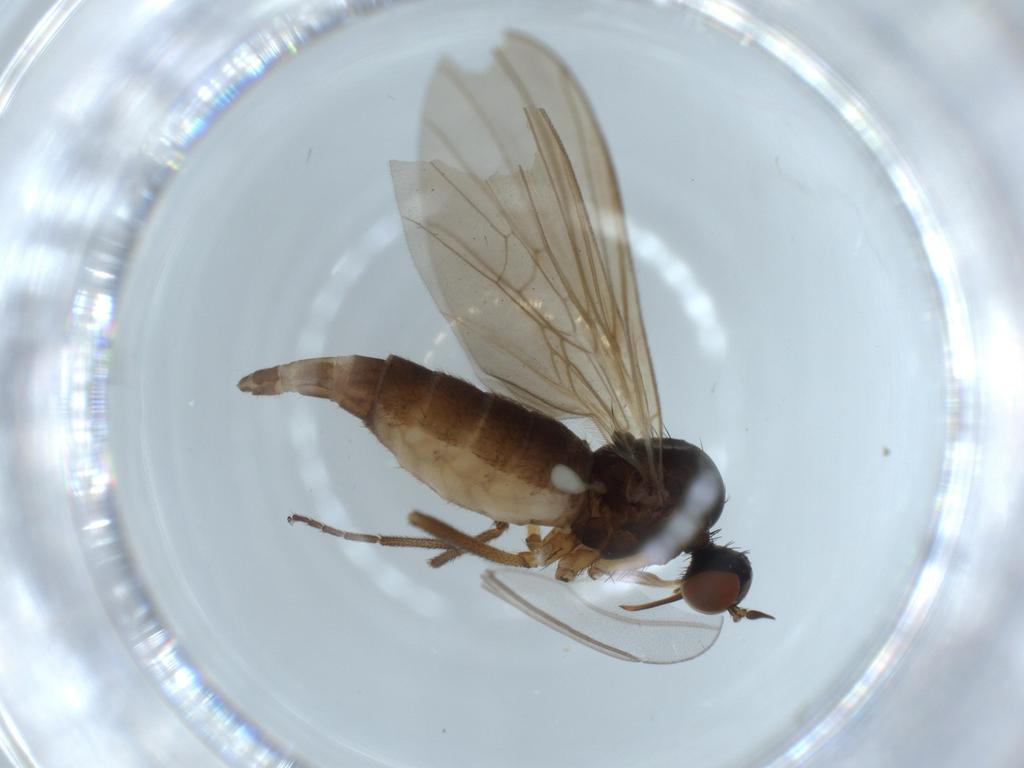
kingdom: Animalia
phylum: Arthropoda
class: Insecta
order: Diptera
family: Empididae
